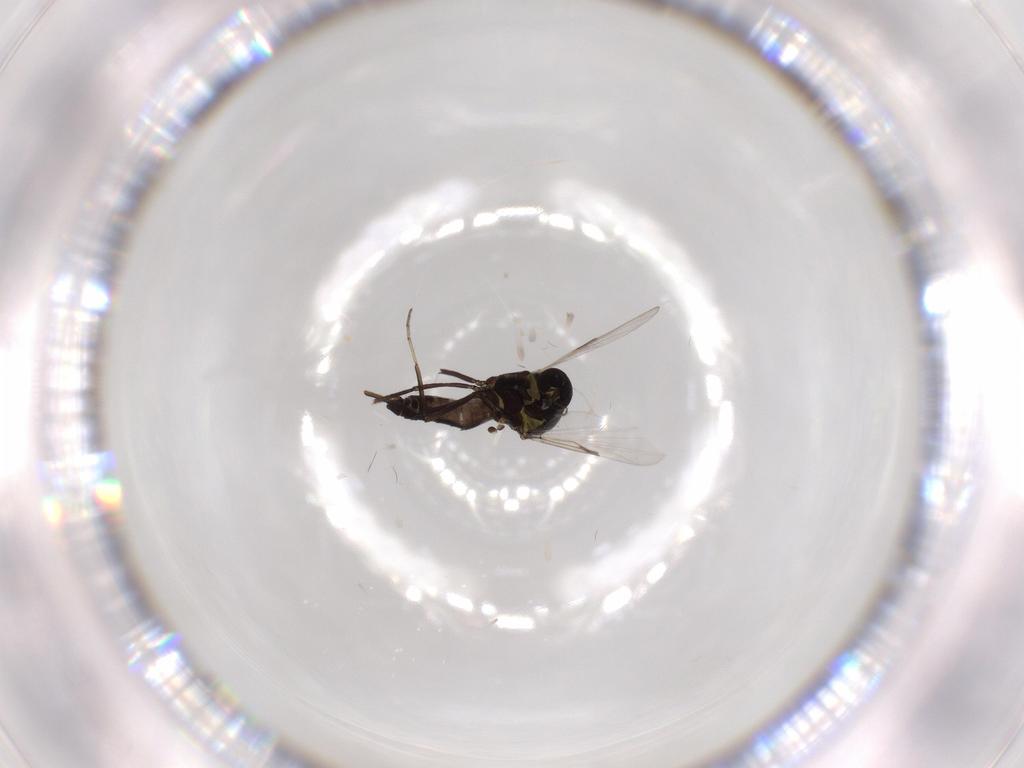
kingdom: Animalia
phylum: Arthropoda
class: Insecta
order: Diptera
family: Ceratopogonidae
